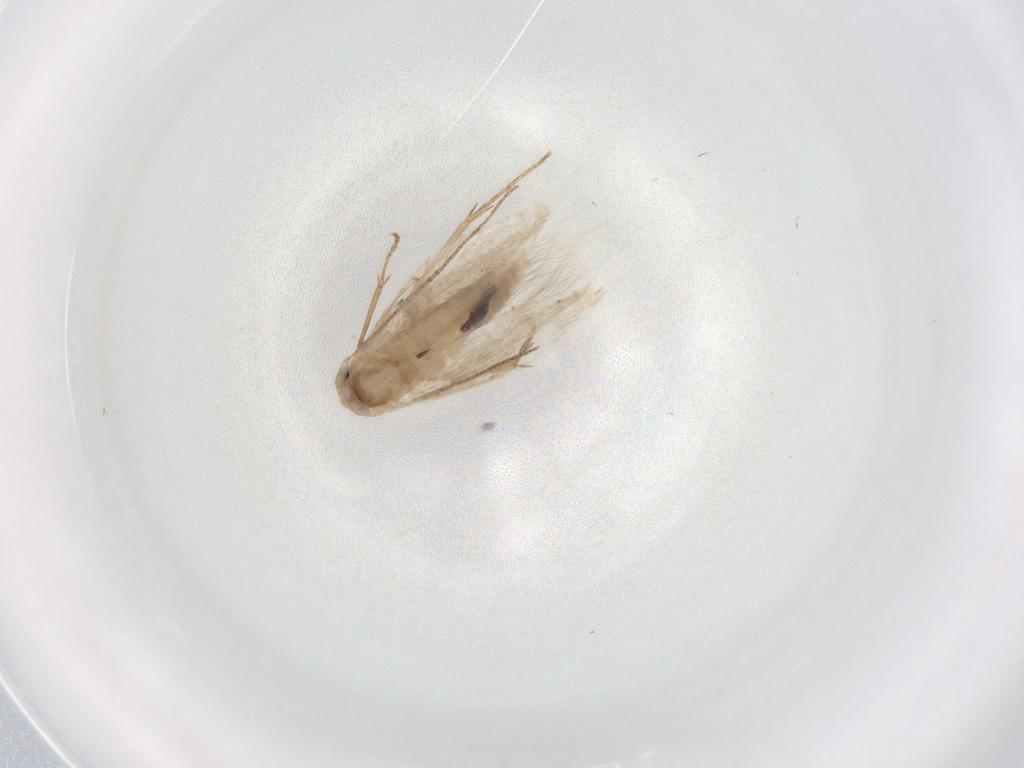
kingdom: Animalia
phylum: Arthropoda
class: Insecta
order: Lepidoptera
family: Bucculatricidae
